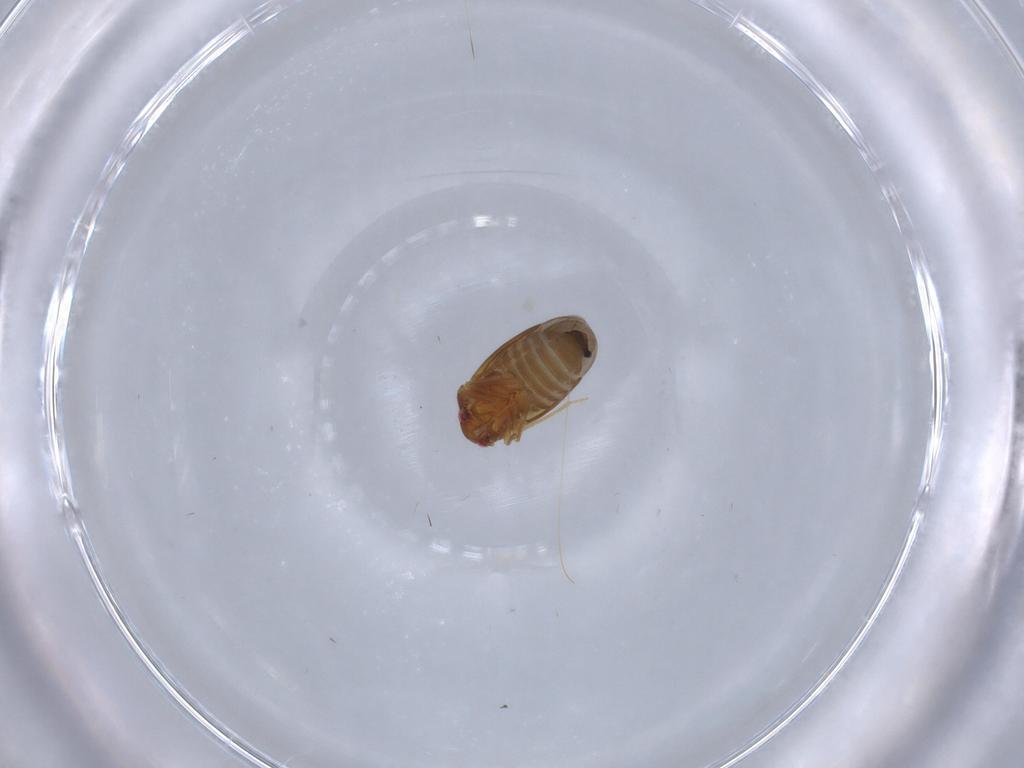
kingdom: Animalia
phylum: Arthropoda
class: Insecta
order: Hemiptera
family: Schizopteridae
